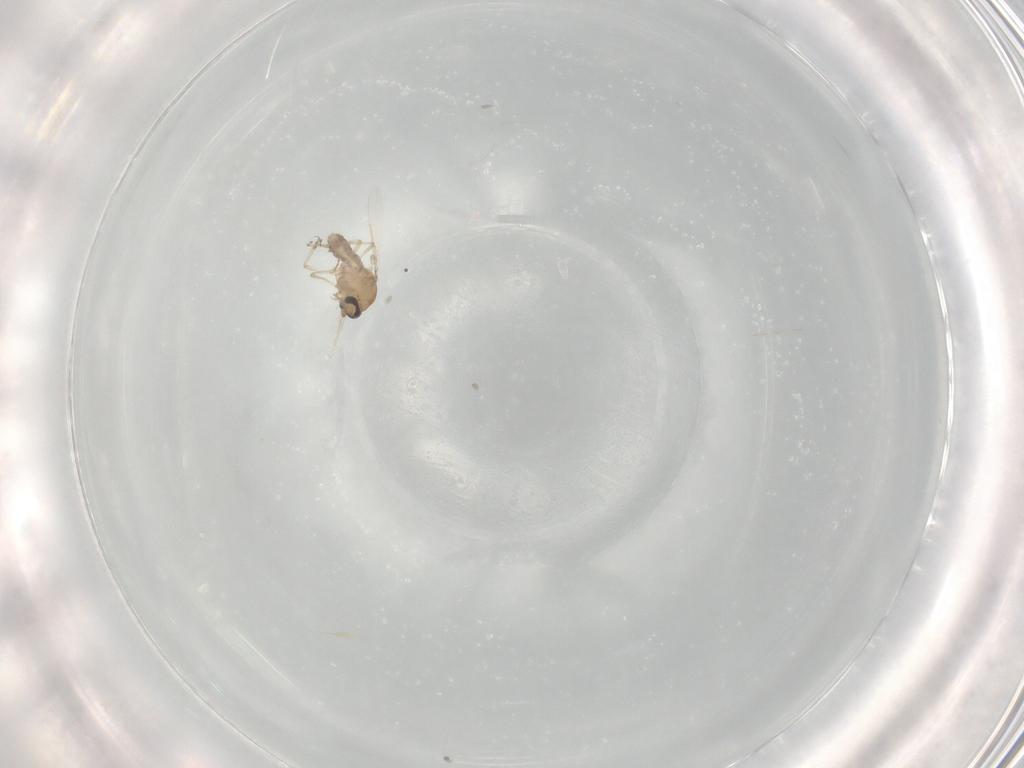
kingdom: Animalia
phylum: Arthropoda
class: Insecta
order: Diptera
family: Ceratopogonidae
